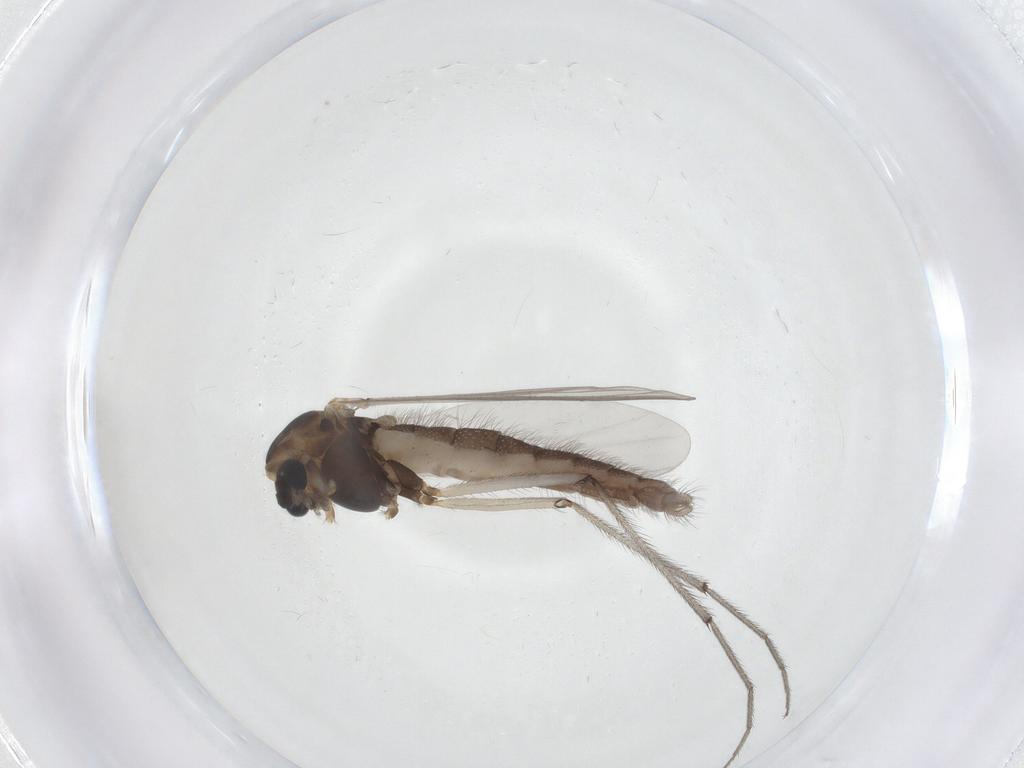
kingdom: Animalia
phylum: Arthropoda
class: Insecta
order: Diptera
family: Chironomidae
